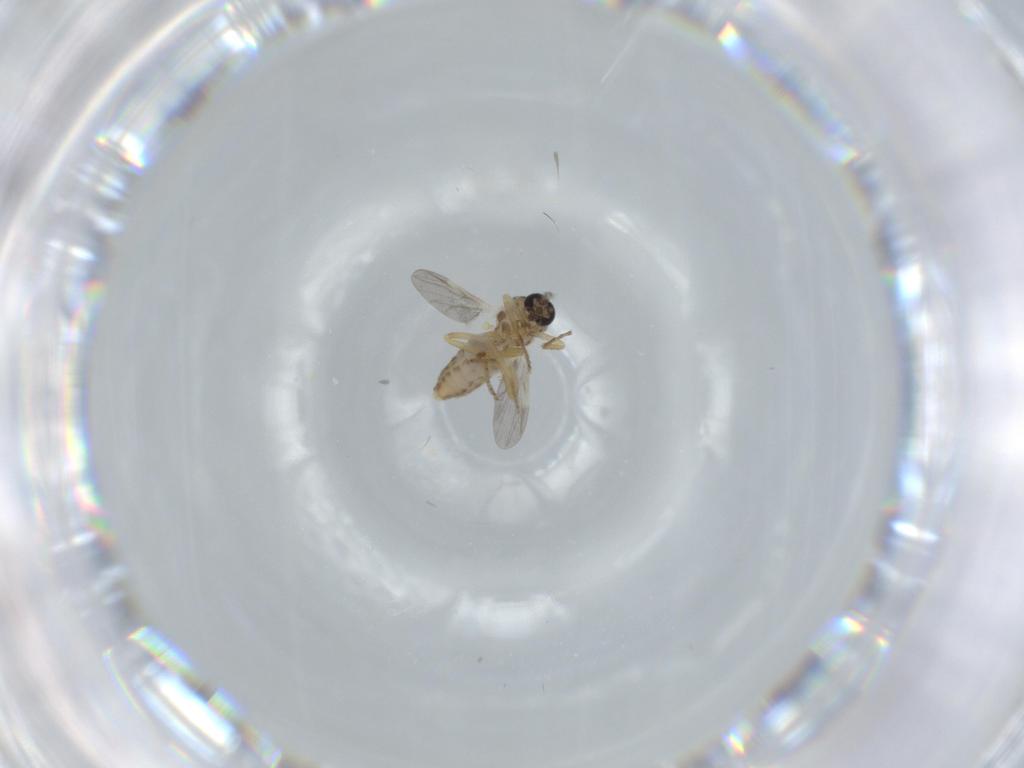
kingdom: Animalia
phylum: Arthropoda
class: Insecta
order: Diptera
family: Ceratopogonidae
